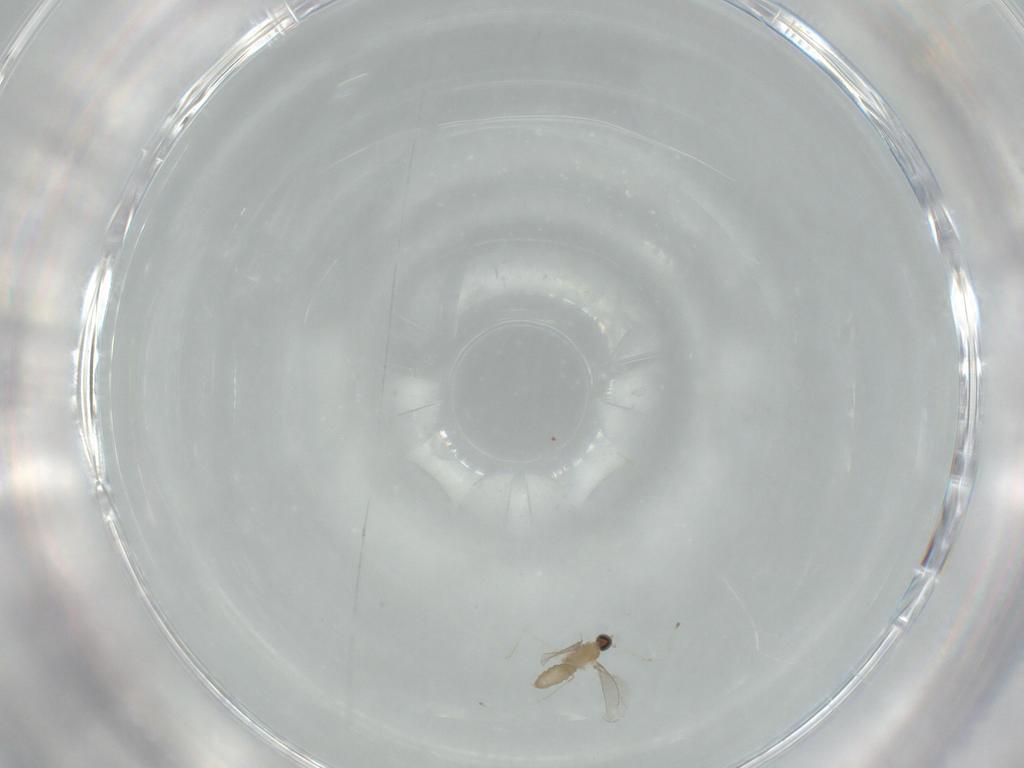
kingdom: Animalia
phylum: Arthropoda
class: Insecta
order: Diptera
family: Cecidomyiidae
